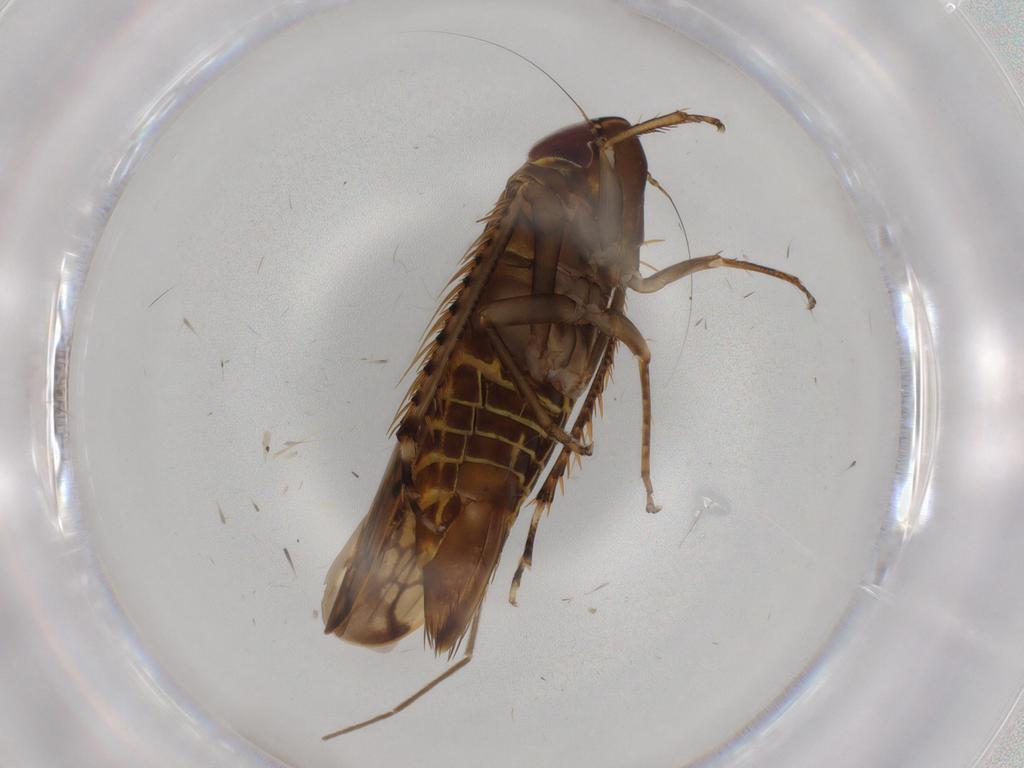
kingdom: Animalia
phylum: Arthropoda
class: Insecta
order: Hemiptera
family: Cicadellidae
